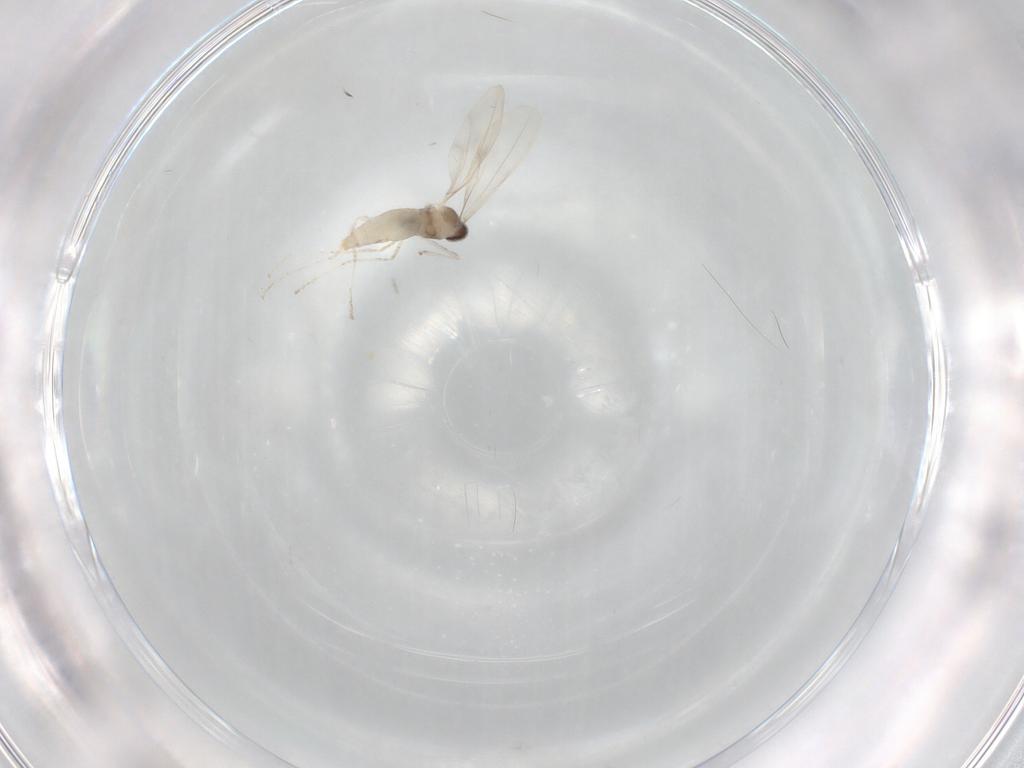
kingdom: Animalia
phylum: Arthropoda
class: Insecta
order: Diptera
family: Cecidomyiidae
